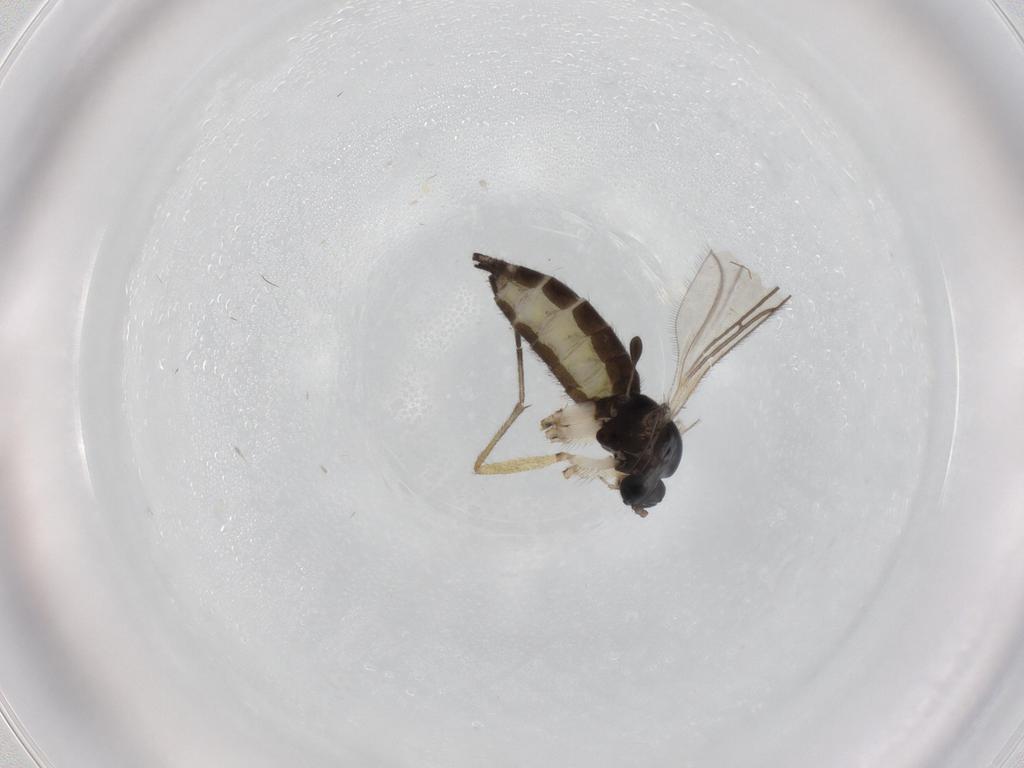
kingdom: Animalia
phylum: Arthropoda
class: Insecta
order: Diptera
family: Sciaridae
